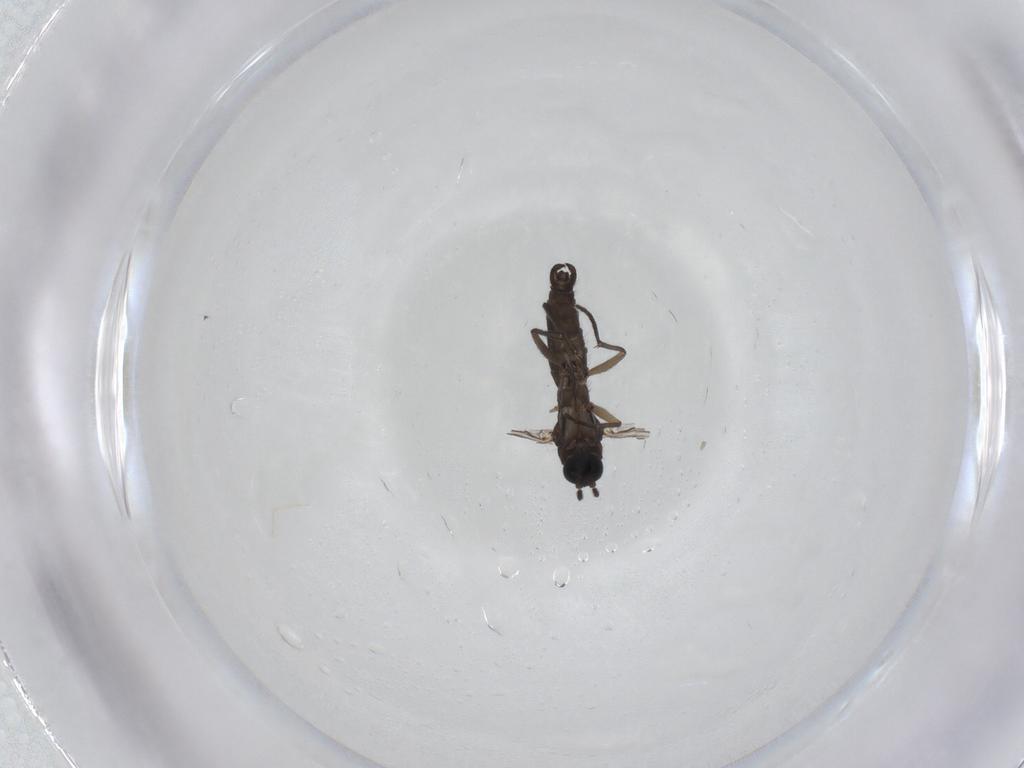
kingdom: Animalia
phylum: Arthropoda
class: Insecta
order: Diptera
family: Sciaridae
